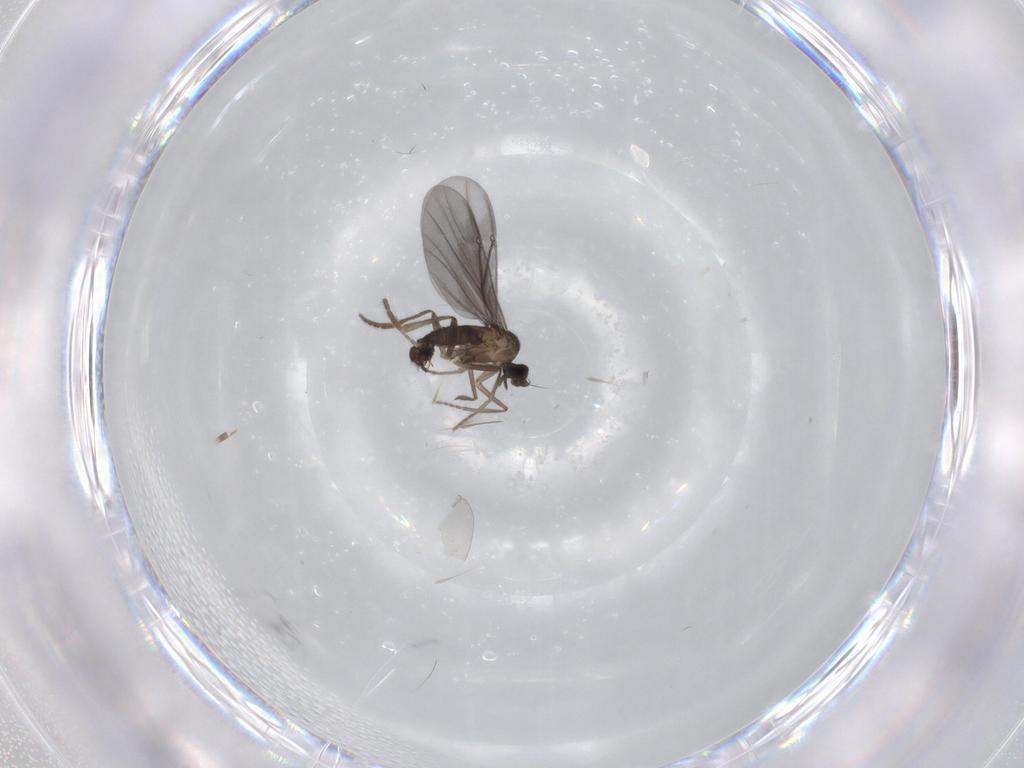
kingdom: Animalia
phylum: Arthropoda
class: Insecta
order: Diptera
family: Phoridae
